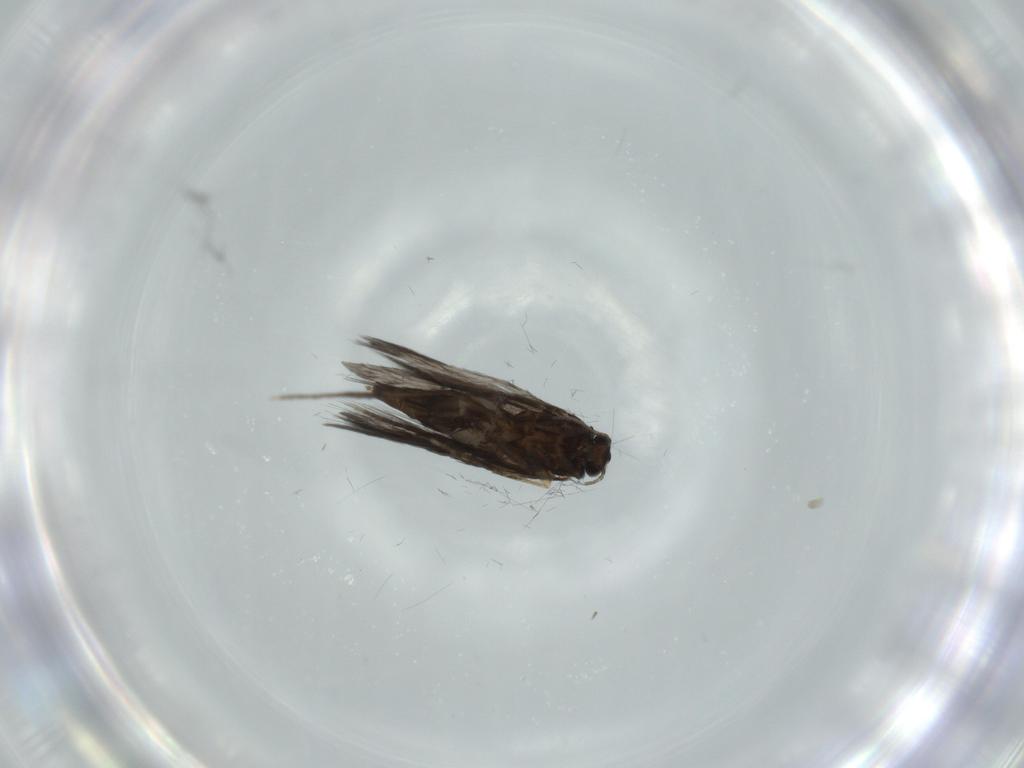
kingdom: Animalia
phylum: Arthropoda
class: Insecta
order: Trichoptera
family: Hydroptilidae
